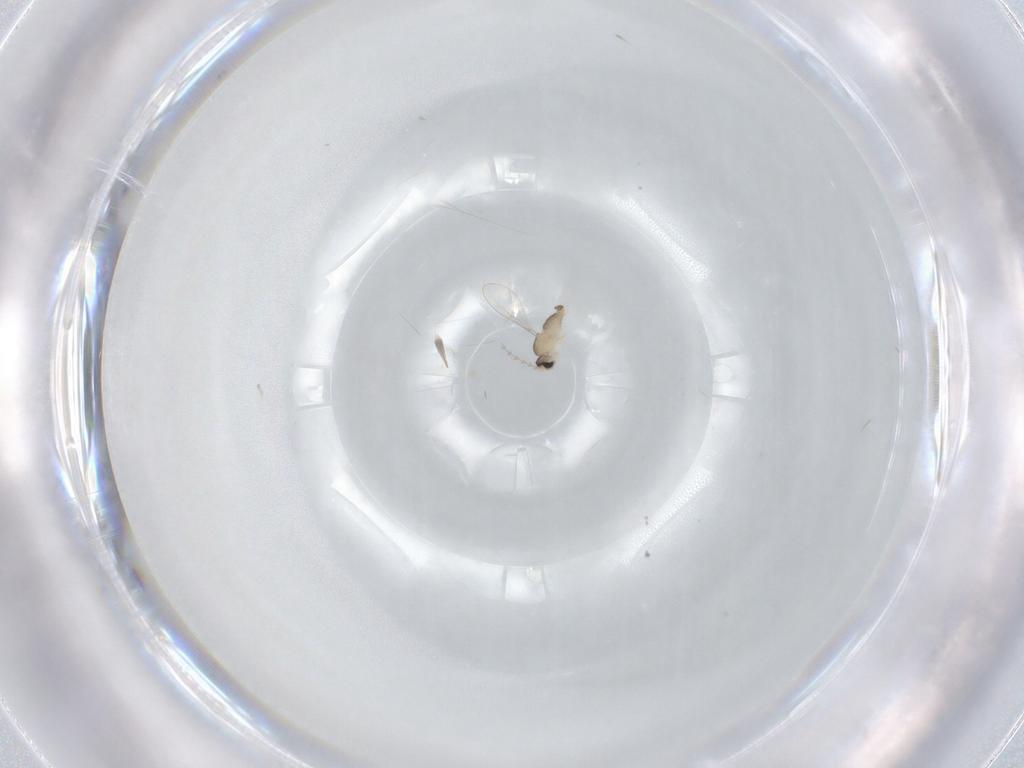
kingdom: Animalia
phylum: Arthropoda
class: Insecta
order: Diptera
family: Cecidomyiidae
